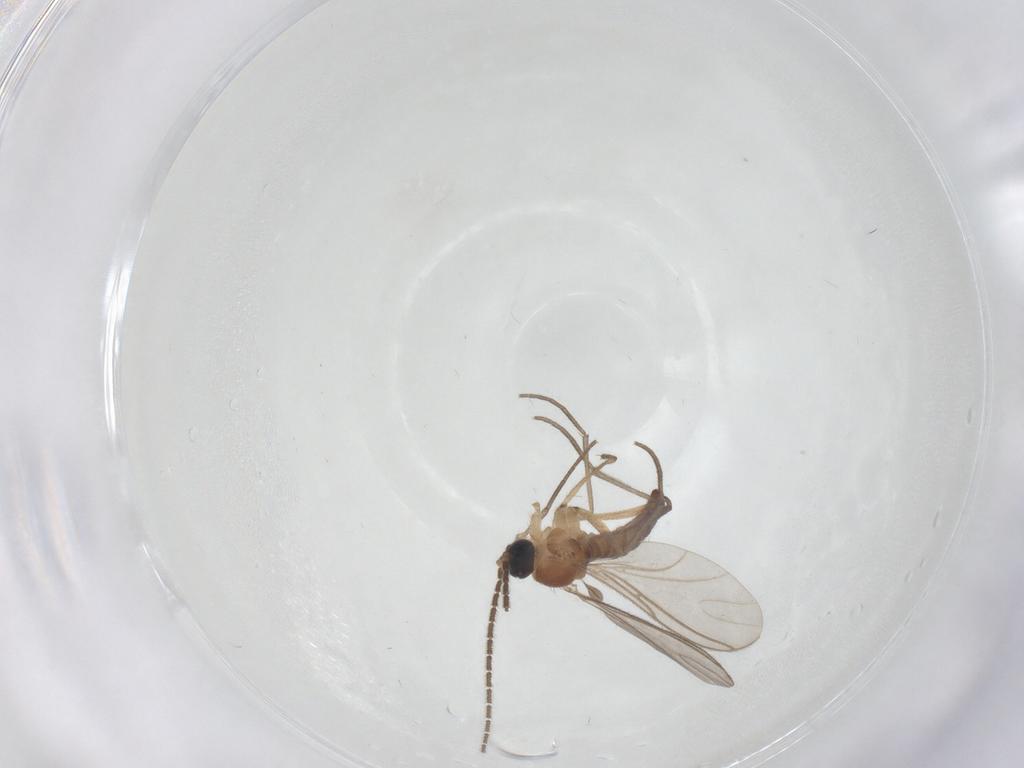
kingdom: Animalia
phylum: Arthropoda
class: Insecta
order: Diptera
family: Sciaridae
